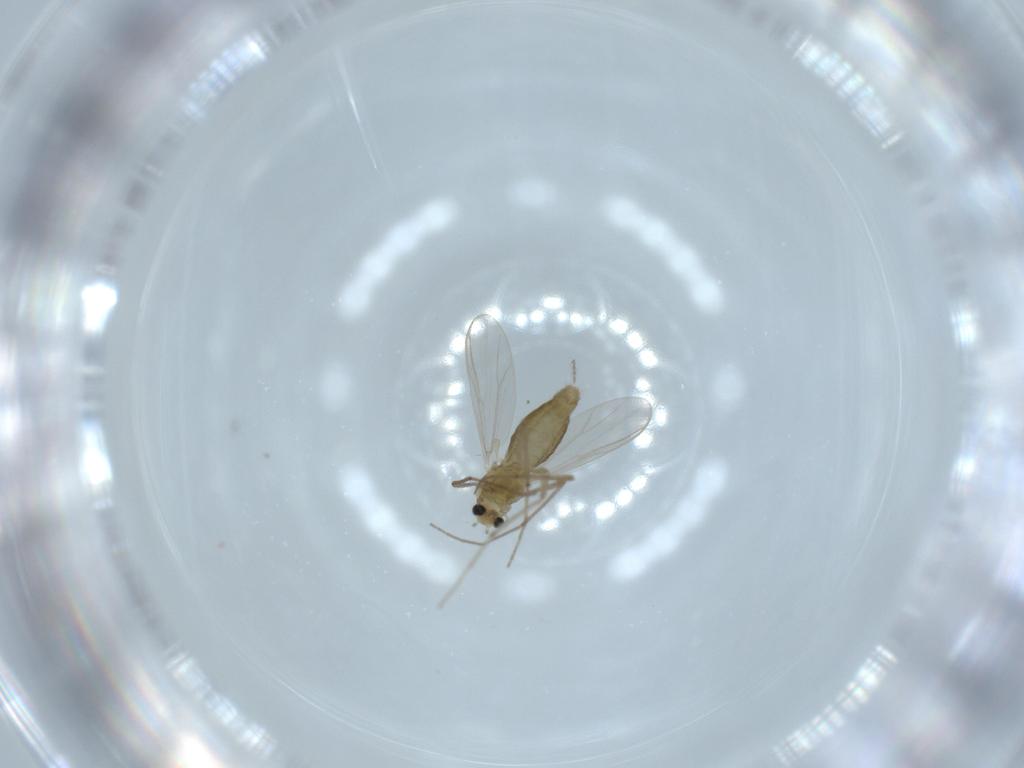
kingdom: Animalia
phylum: Arthropoda
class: Insecta
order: Diptera
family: Chironomidae
